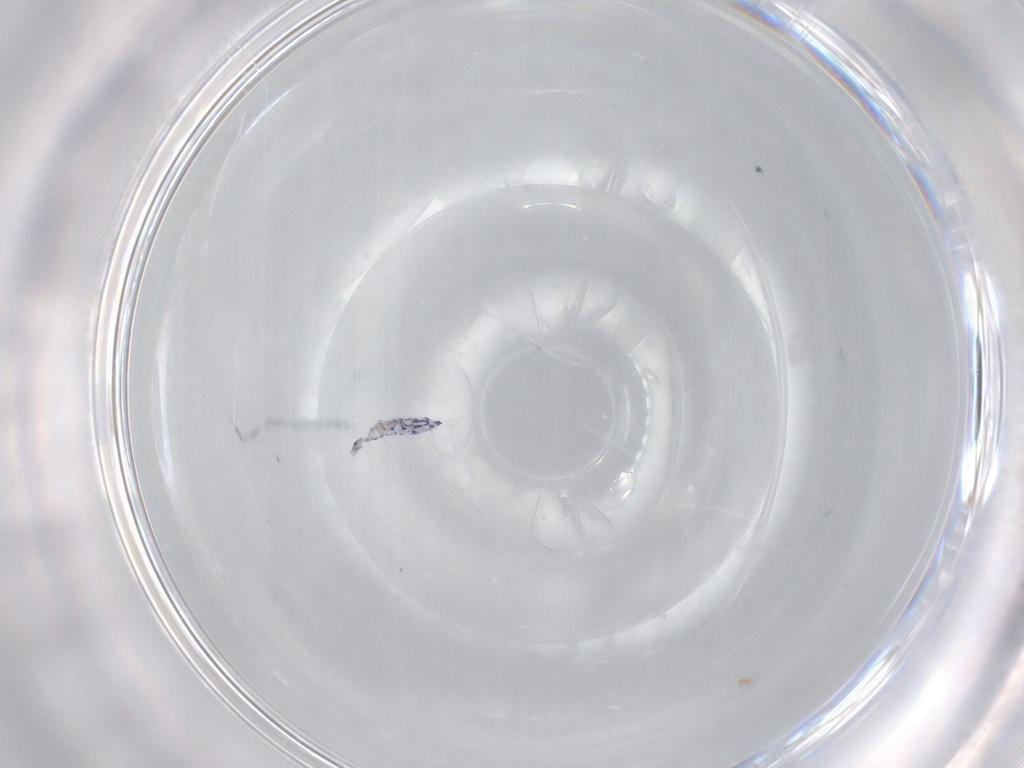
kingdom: Animalia
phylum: Arthropoda
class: Collembola
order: Entomobryomorpha
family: Entomobryidae
